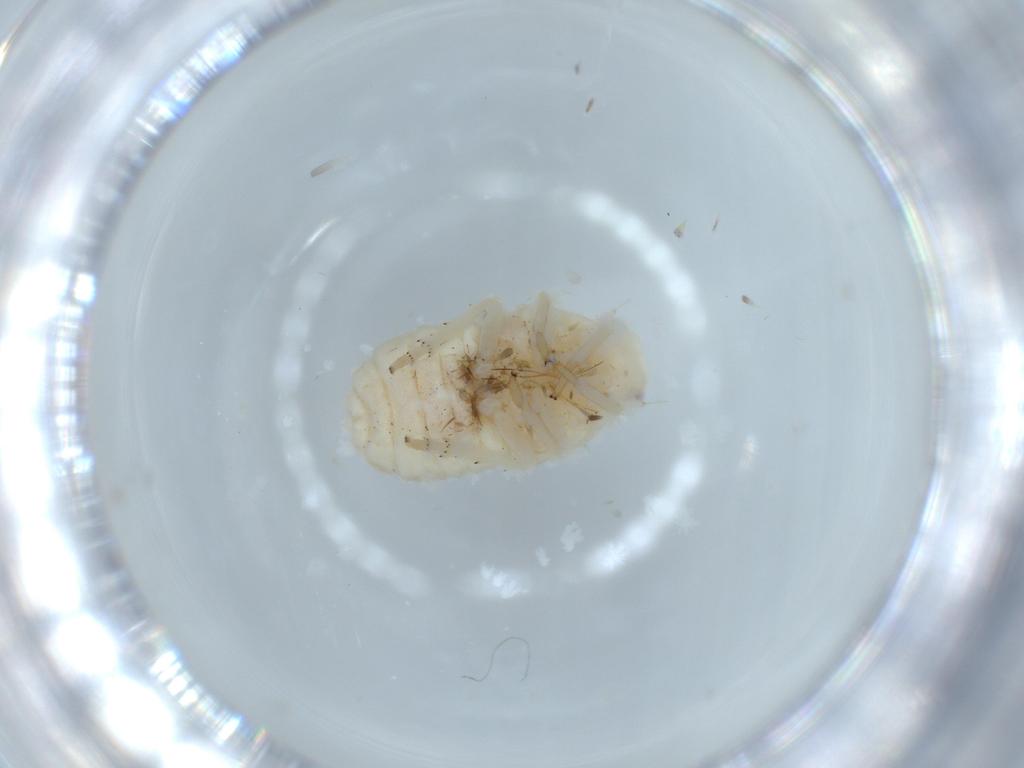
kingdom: Animalia
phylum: Arthropoda
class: Insecta
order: Hemiptera
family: Flatidae
